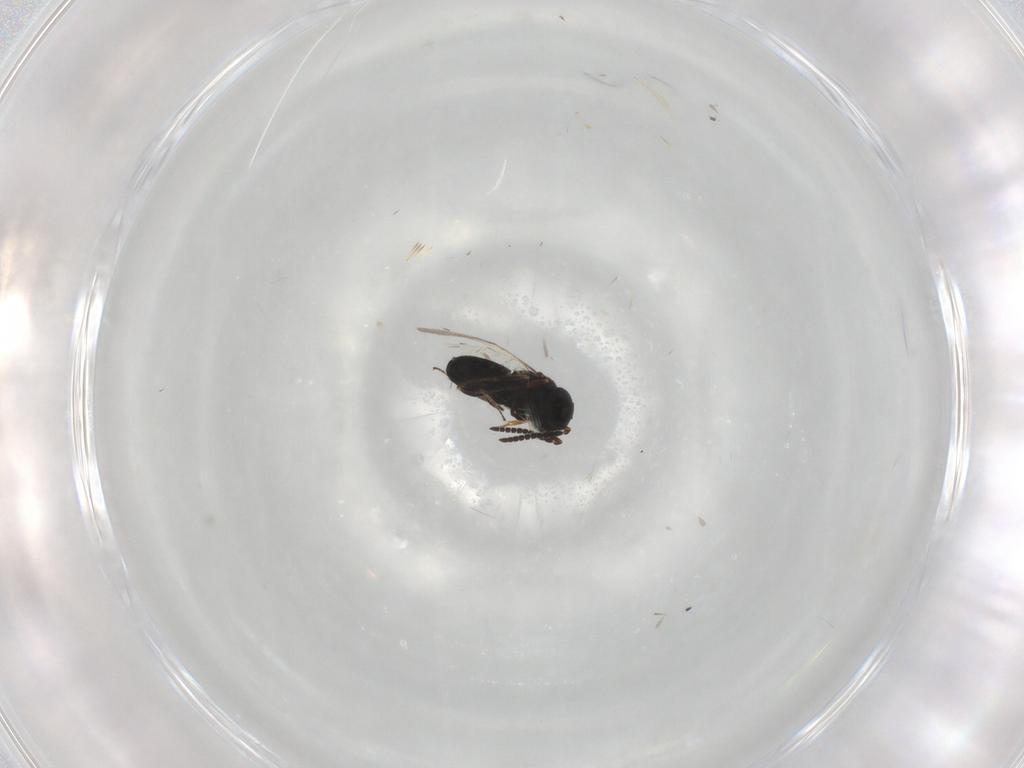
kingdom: Animalia
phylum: Arthropoda
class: Insecta
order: Hymenoptera
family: Scelionidae
